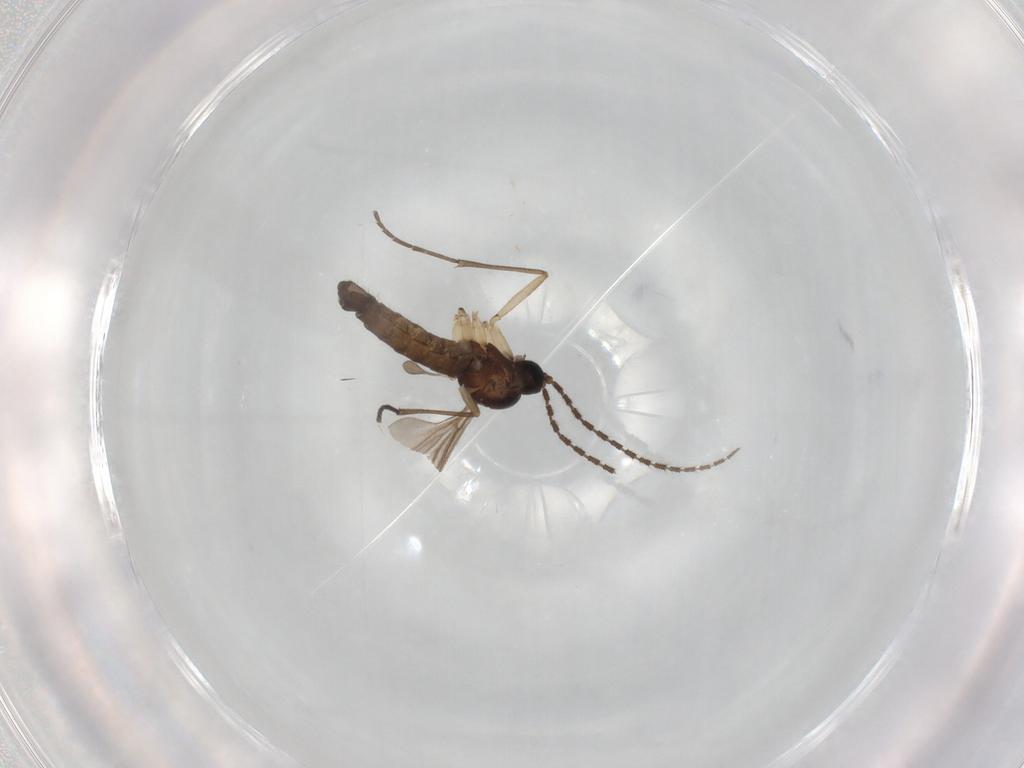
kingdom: Animalia
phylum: Arthropoda
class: Insecta
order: Diptera
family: Sciaridae
